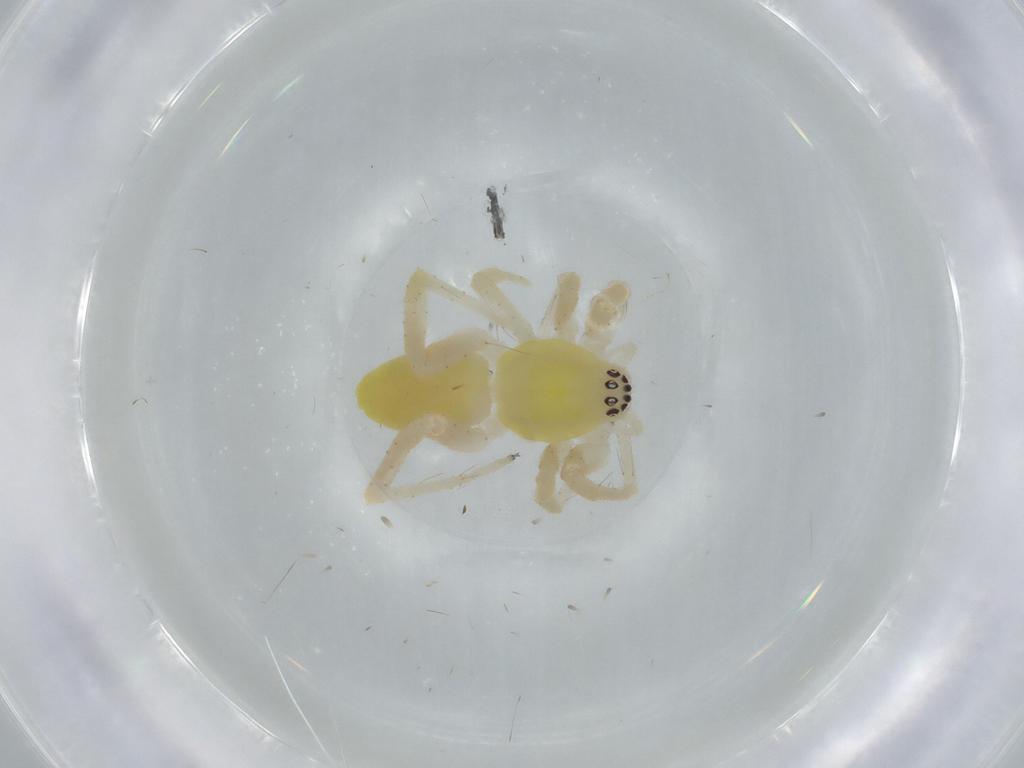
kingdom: Animalia
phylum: Arthropoda
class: Arachnida
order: Araneae
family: Anyphaenidae
